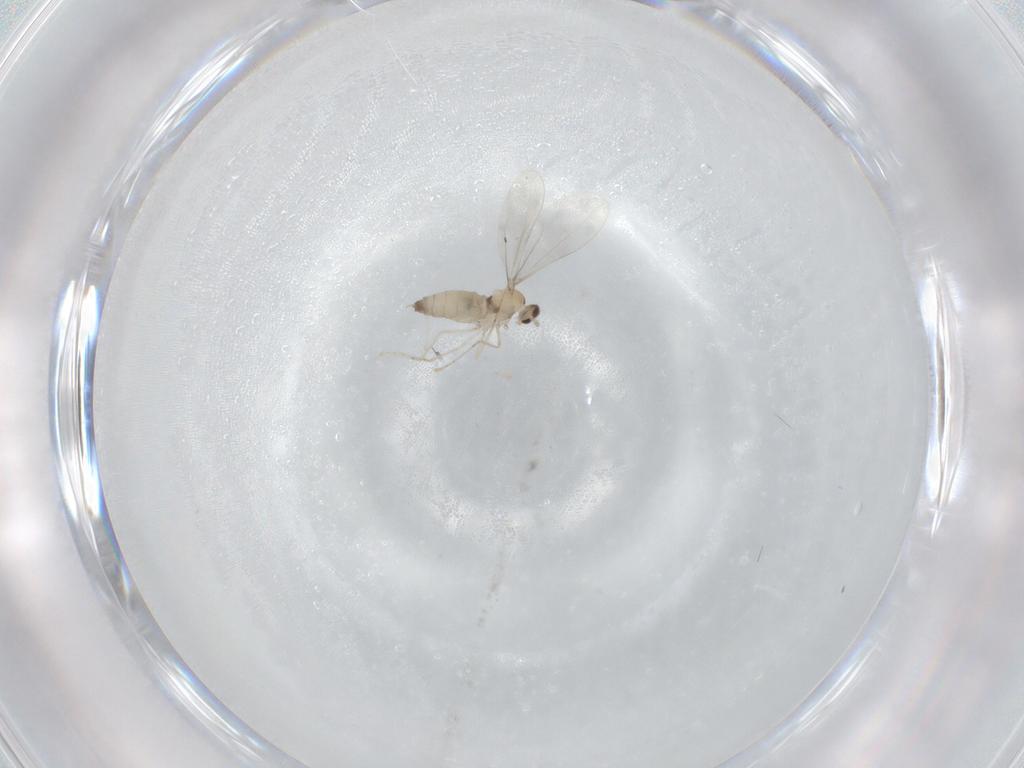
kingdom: Animalia
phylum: Arthropoda
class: Insecta
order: Diptera
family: Cecidomyiidae
